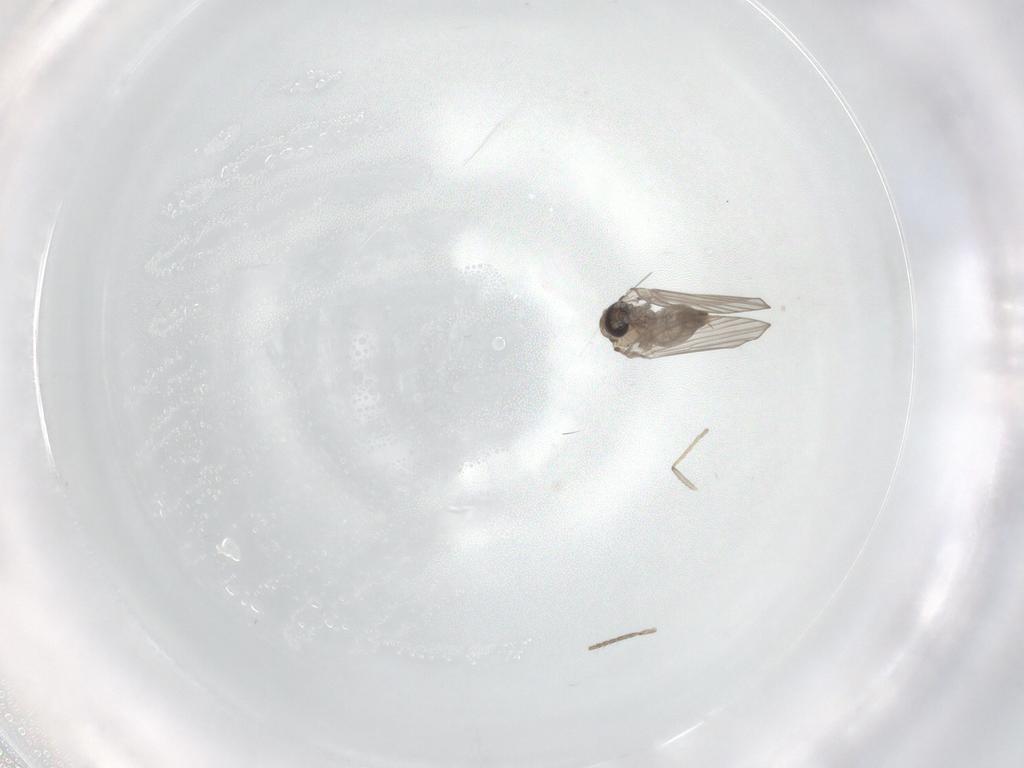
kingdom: Animalia
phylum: Arthropoda
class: Insecta
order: Diptera
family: Psychodidae
